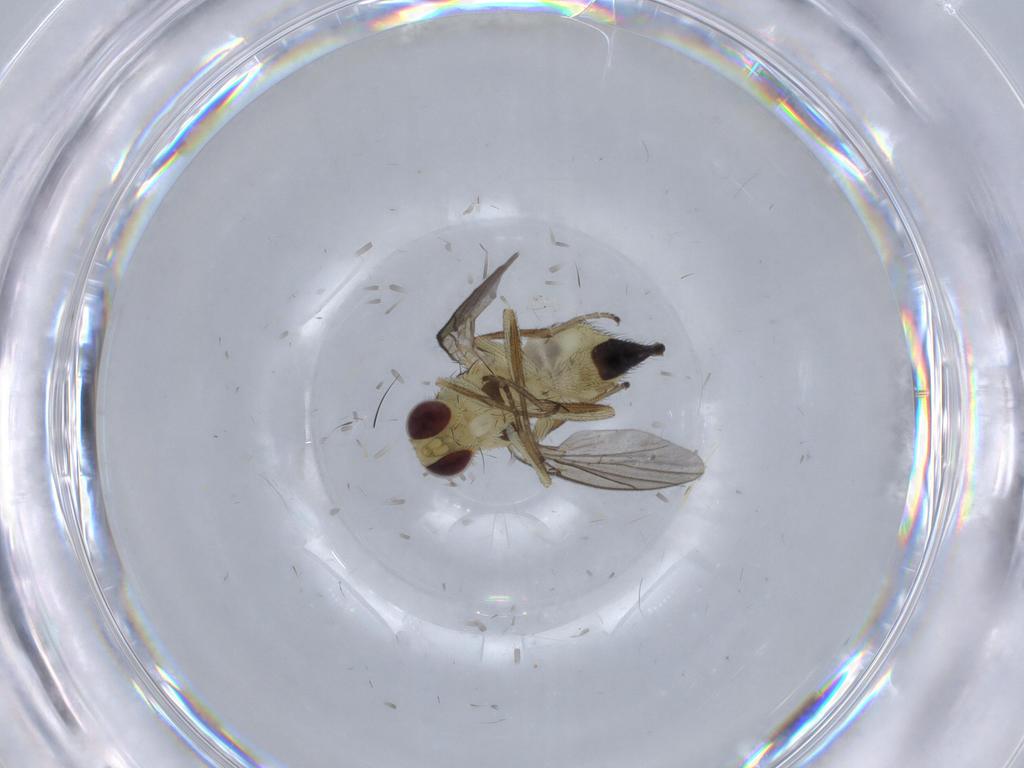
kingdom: Animalia
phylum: Arthropoda
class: Insecta
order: Diptera
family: Agromyzidae
